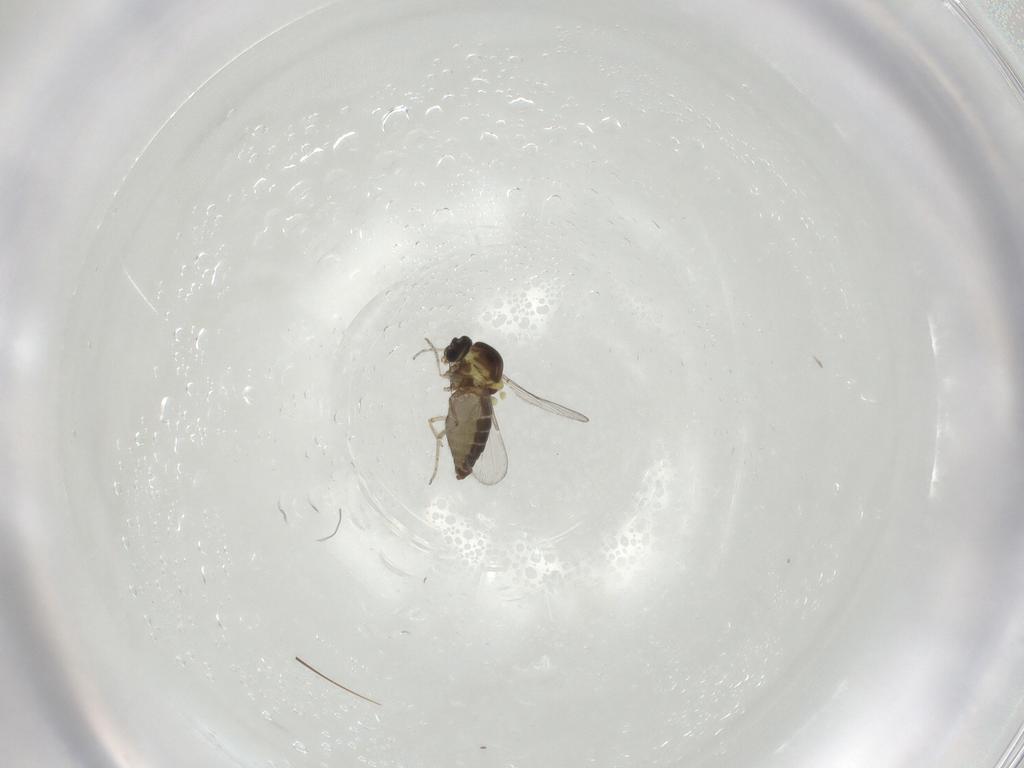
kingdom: Animalia
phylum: Arthropoda
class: Insecta
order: Diptera
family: Ceratopogonidae
